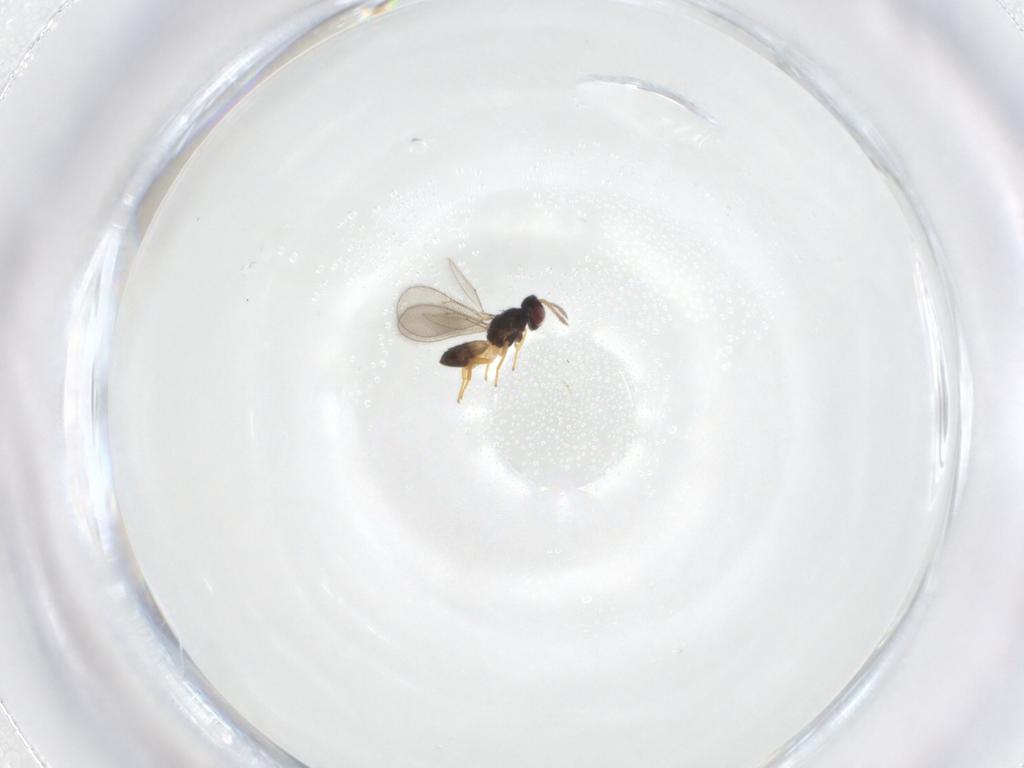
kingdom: Animalia
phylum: Arthropoda
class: Insecta
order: Hymenoptera
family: Eulophidae
